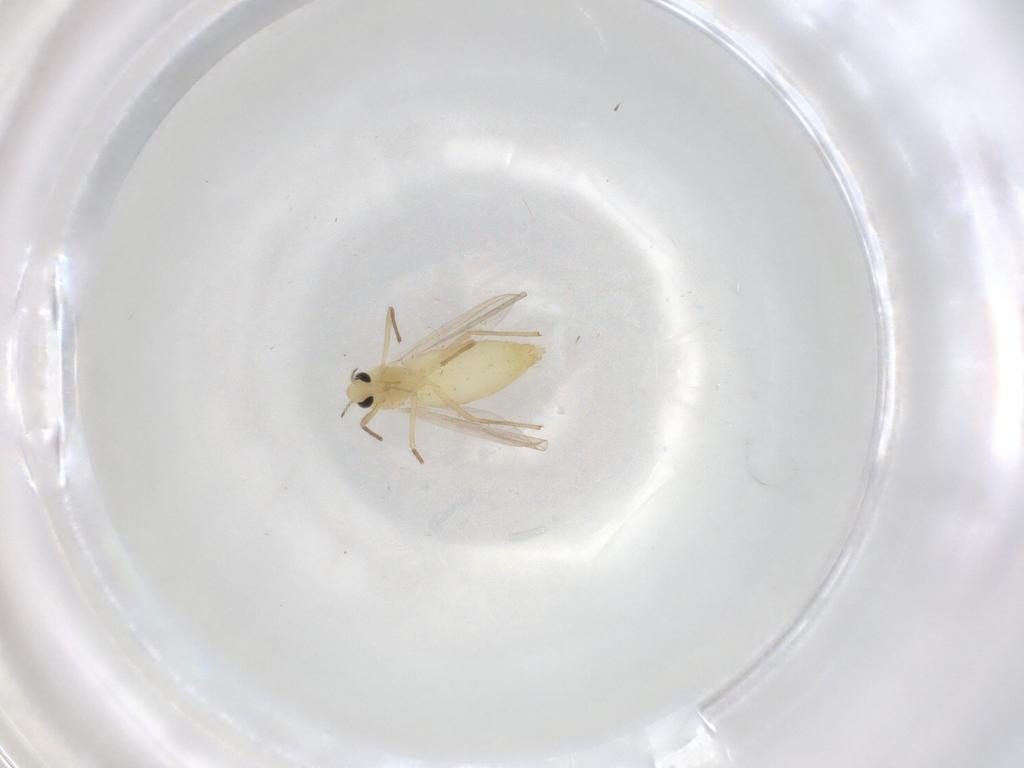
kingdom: Animalia
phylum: Arthropoda
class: Insecta
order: Diptera
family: Chironomidae
